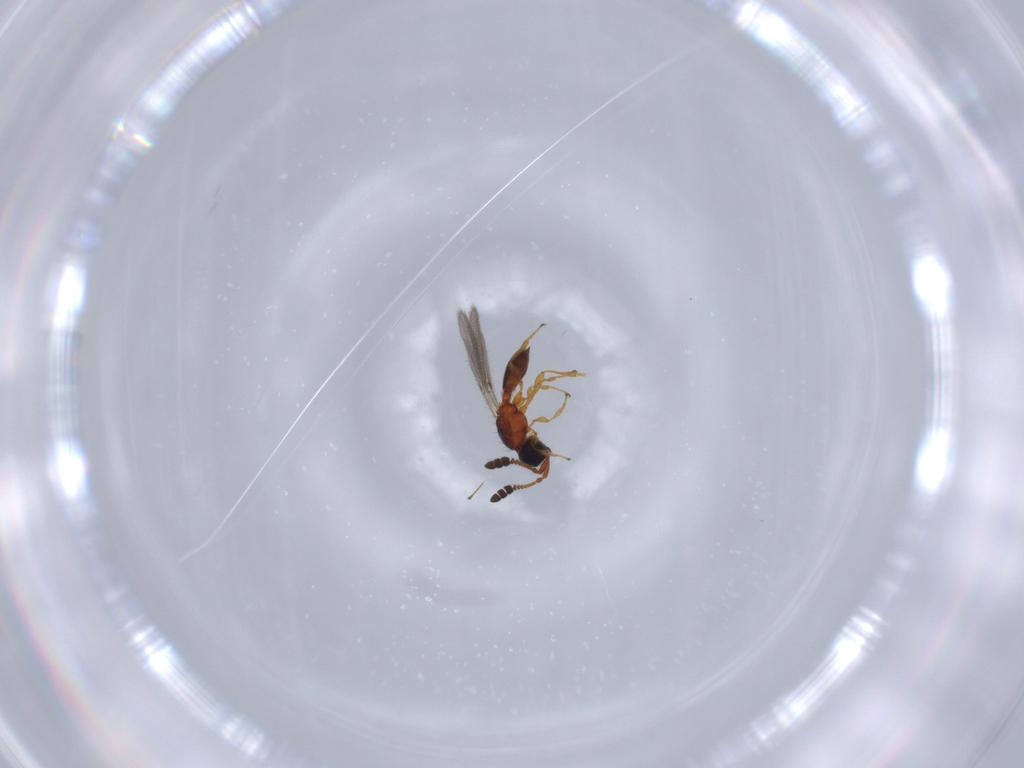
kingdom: Animalia
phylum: Arthropoda
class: Insecta
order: Hymenoptera
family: Diapriidae
